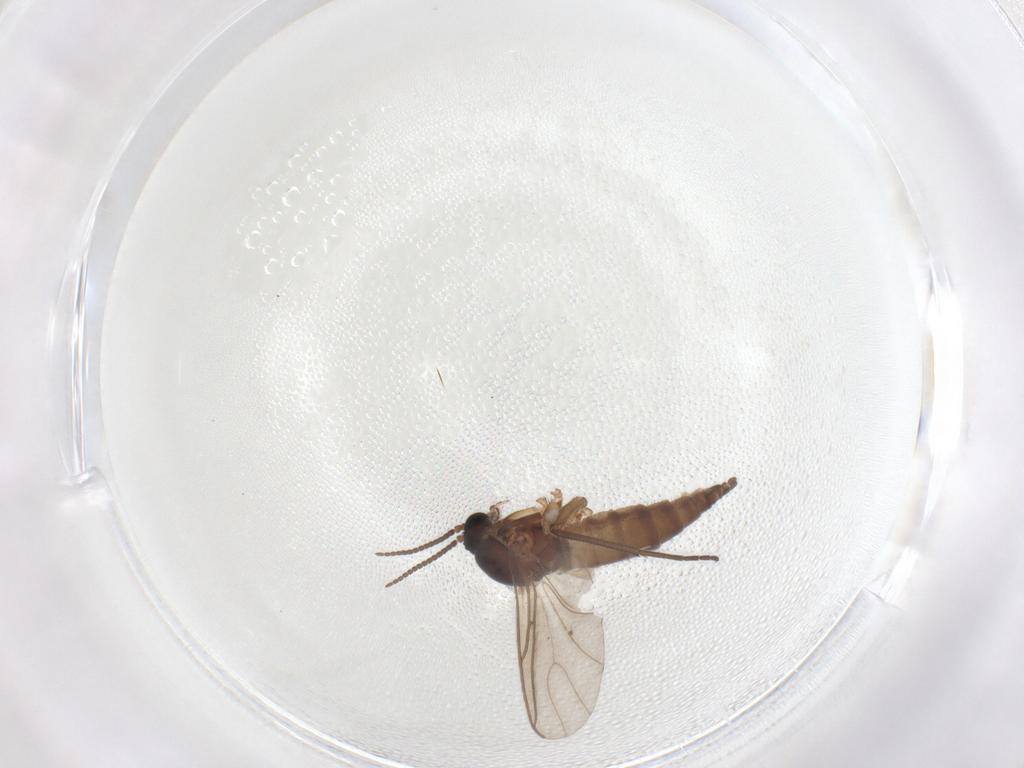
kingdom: Animalia
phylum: Arthropoda
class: Insecta
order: Diptera
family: Sciaridae
